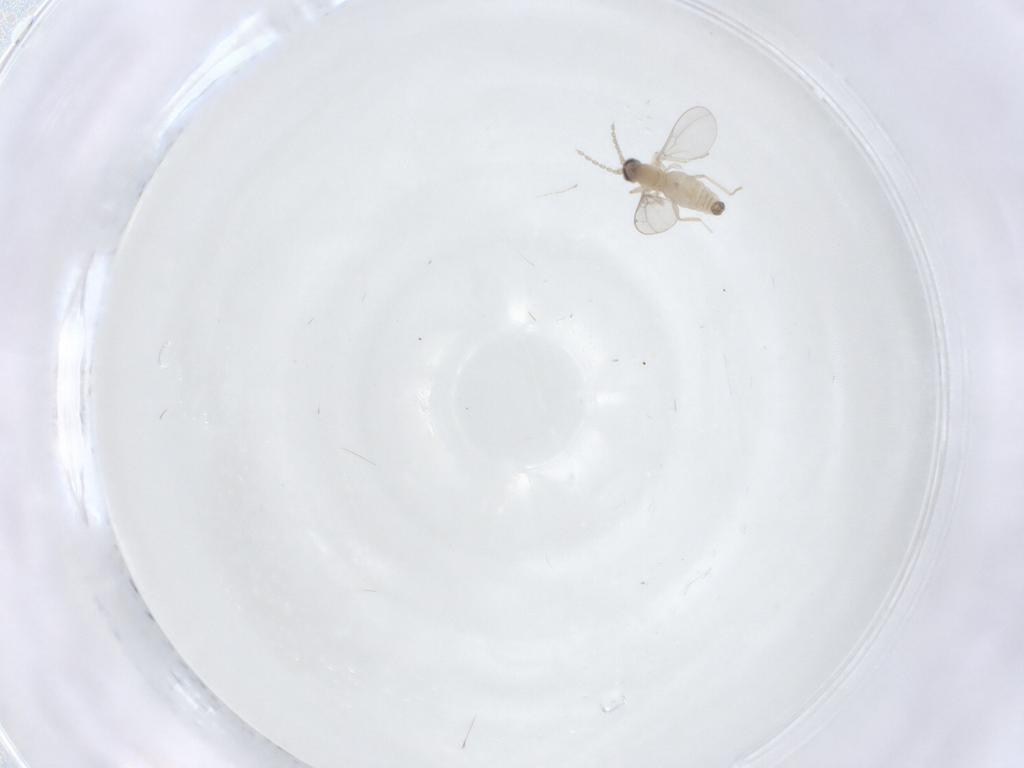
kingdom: Animalia
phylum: Arthropoda
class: Insecta
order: Diptera
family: Cecidomyiidae
